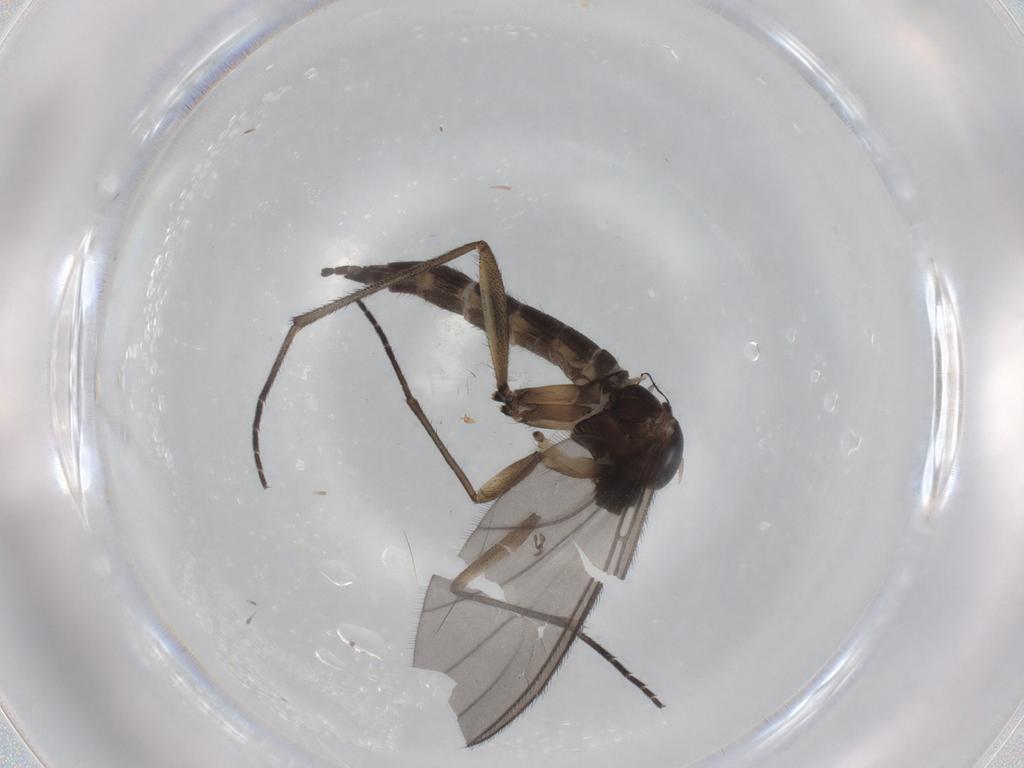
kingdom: Animalia
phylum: Arthropoda
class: Insecta
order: Diptera
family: Sciaridae
